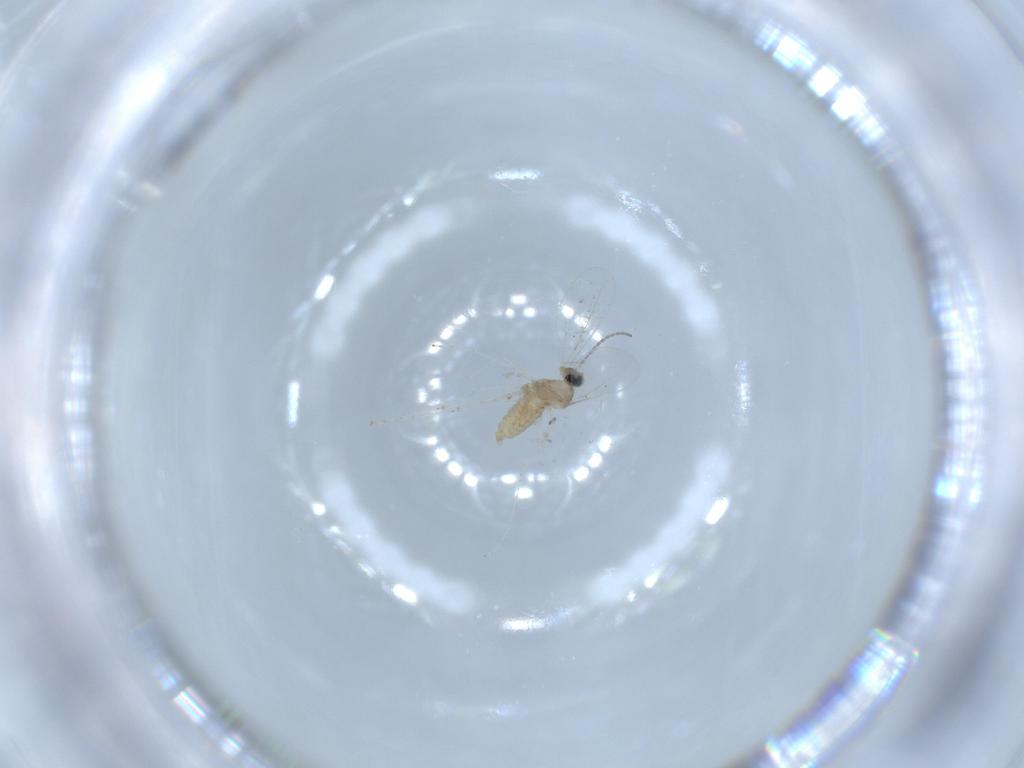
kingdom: Animalia
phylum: Arthropoda
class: Insecta
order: Diptera
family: Cecidomyiidae
